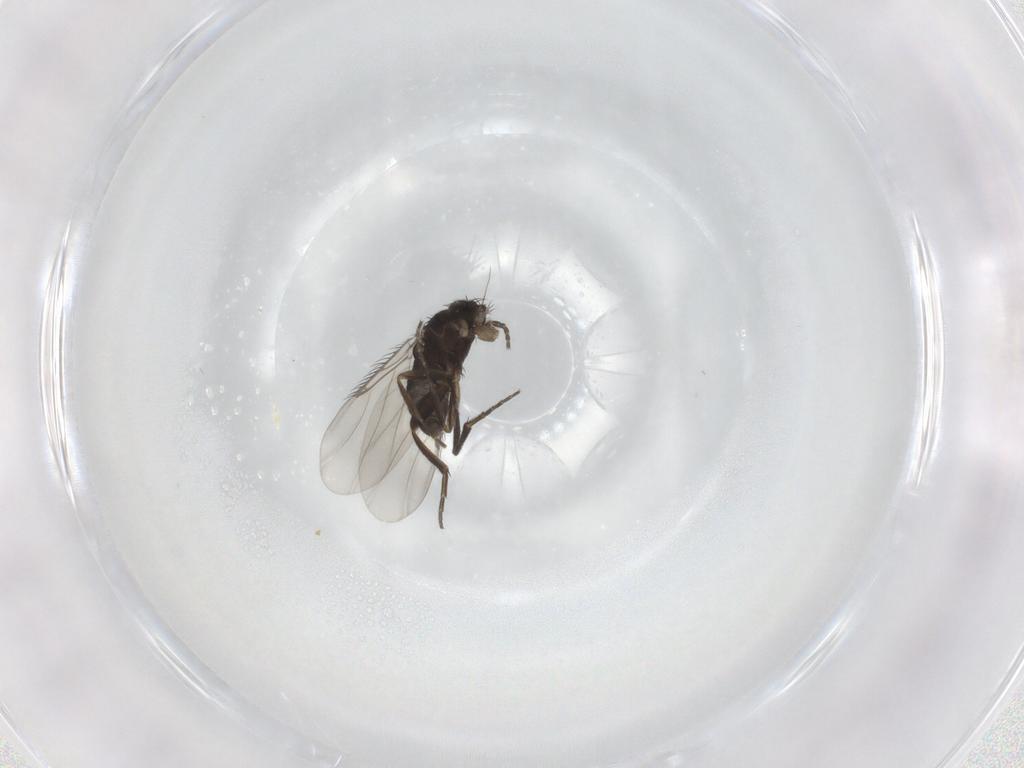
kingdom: Animalia
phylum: Arthropoda
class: Insecta
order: Diptera
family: Phoridae
